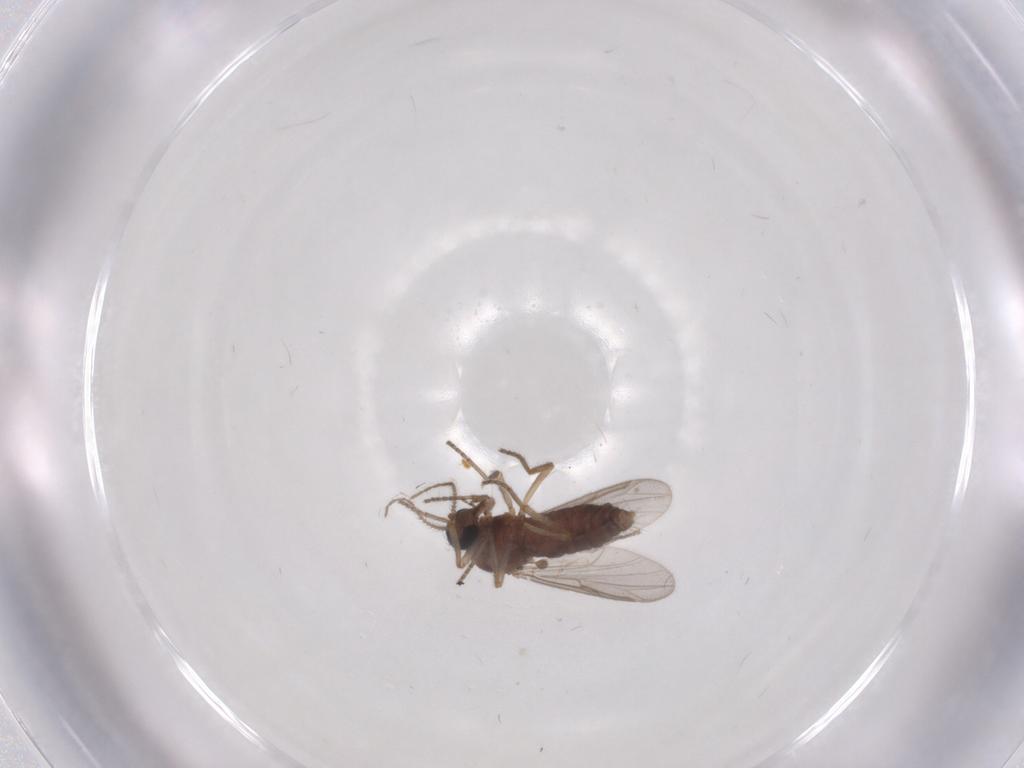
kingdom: Animalia
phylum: Arthropoda
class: Insecta
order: Diptera
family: Ceratopogonidae
